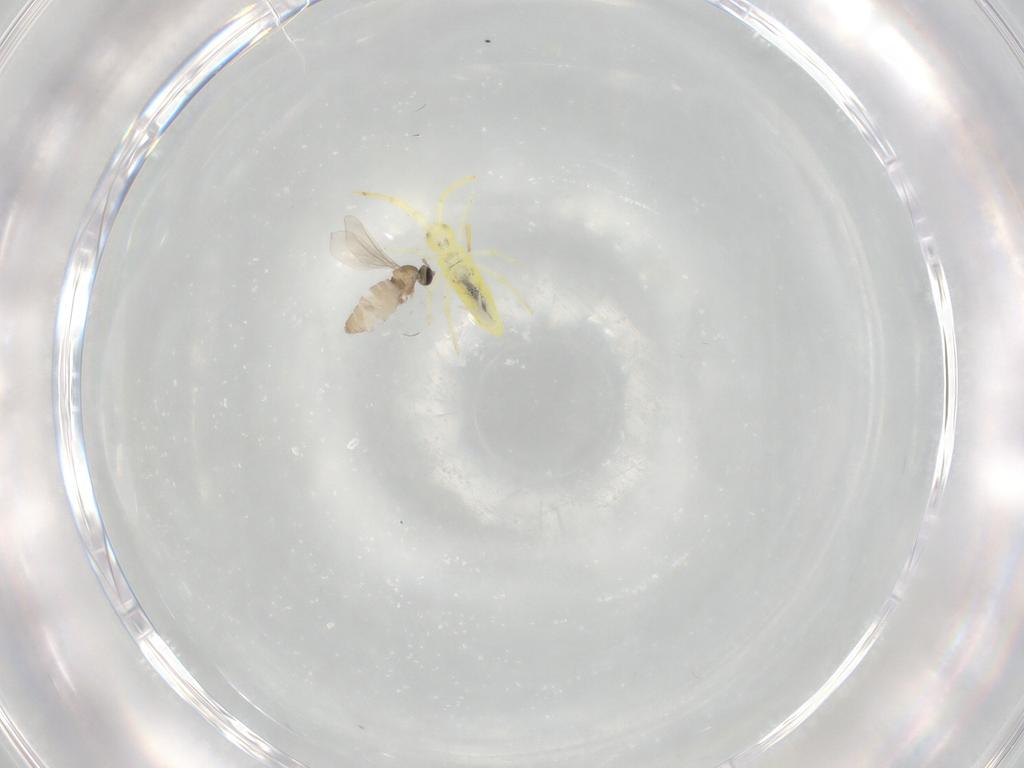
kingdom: Animalia
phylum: Arthropoda
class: Insecta
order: Diptera
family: Cecidomyiidae
